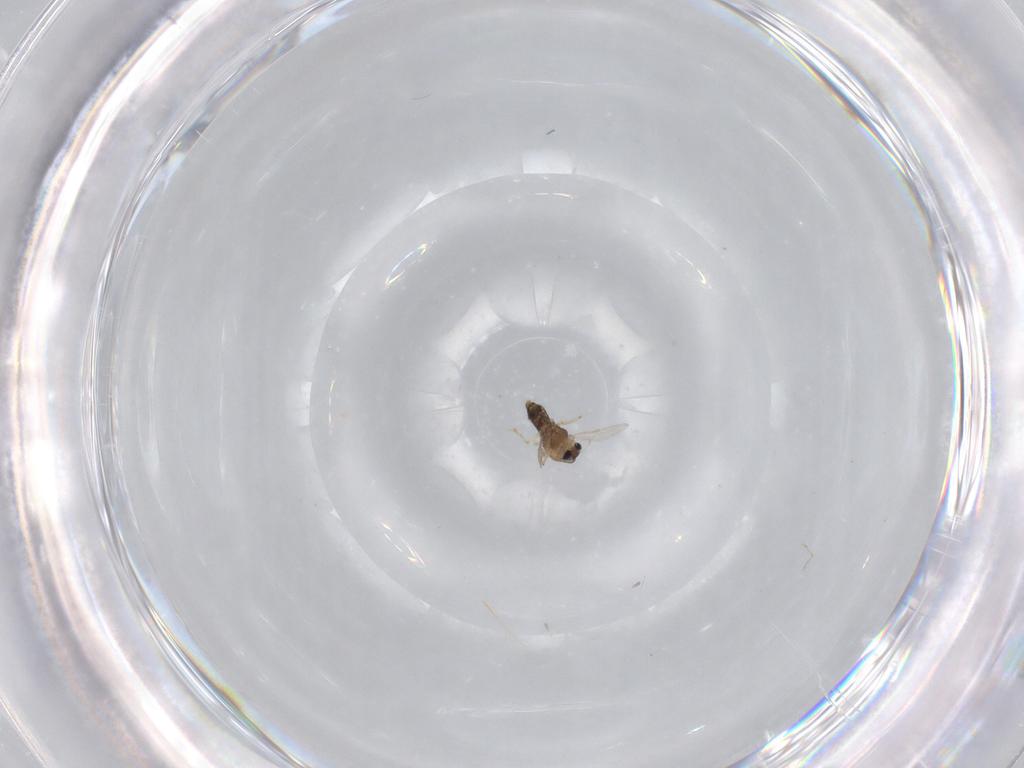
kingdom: Animalia
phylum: Arthropoda
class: Insecta
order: Diptera
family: Chironomidae
